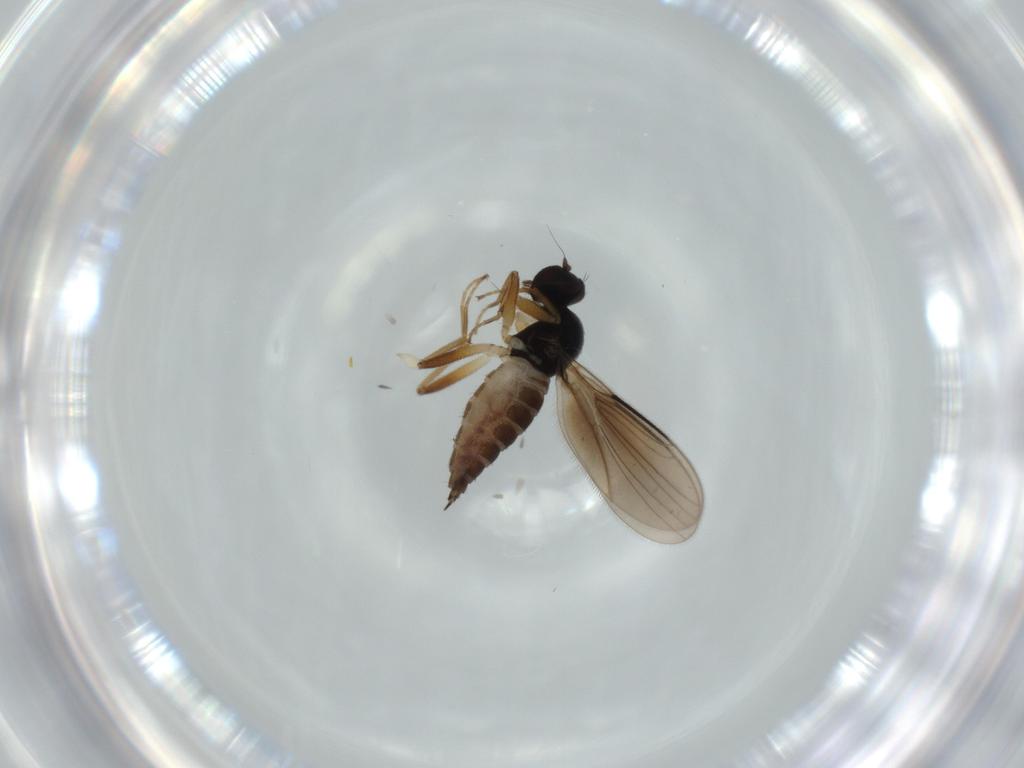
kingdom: Animalia
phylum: Arthropoda
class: Insecta
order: Diptera
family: Hybotidae
